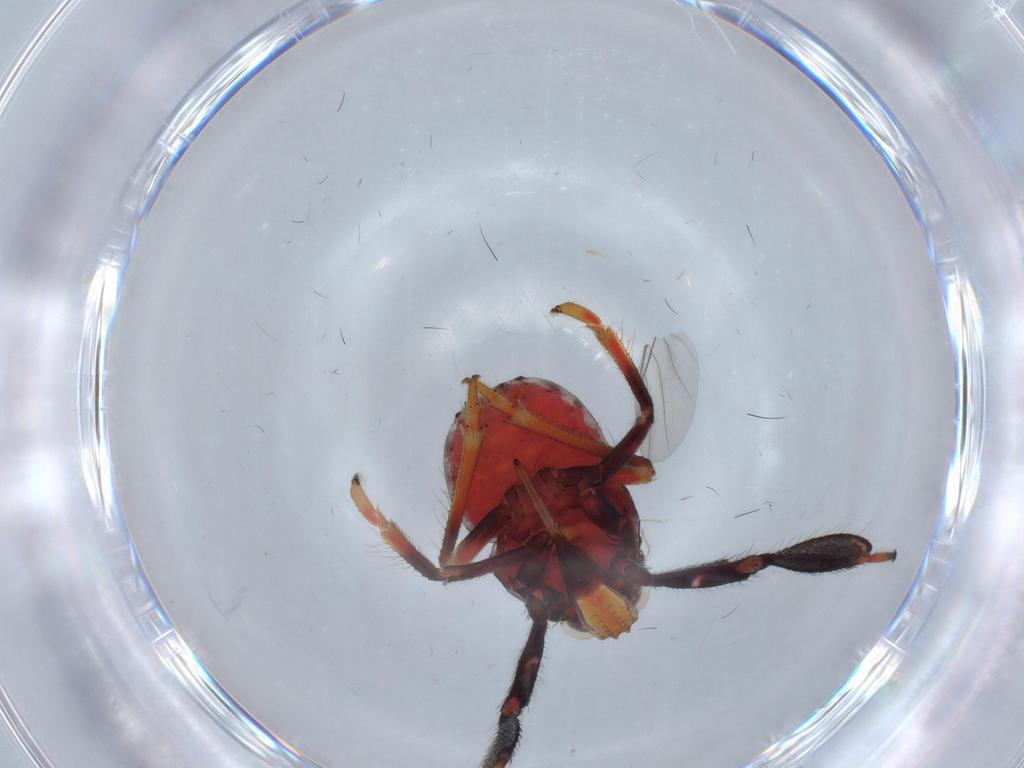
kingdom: Animalia
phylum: Arthropoda
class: Insecta
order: Hemiptera
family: Caliscelidae
